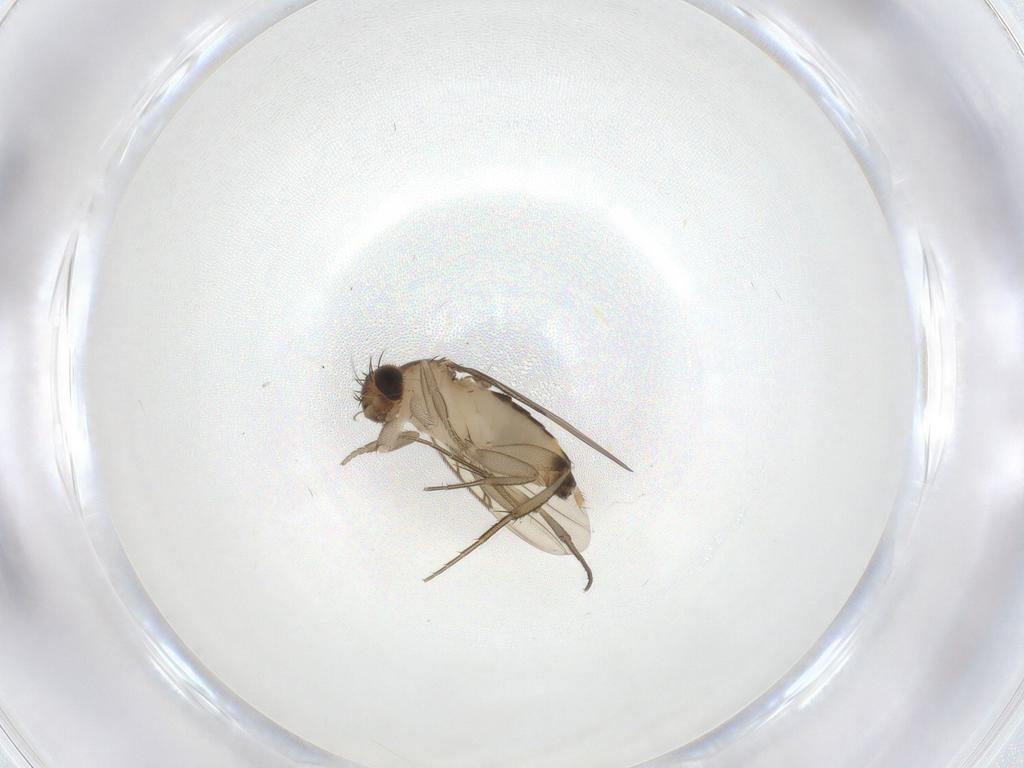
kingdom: Animalia
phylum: Arthropoda
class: Insecta
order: Diptera
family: Phoridae
